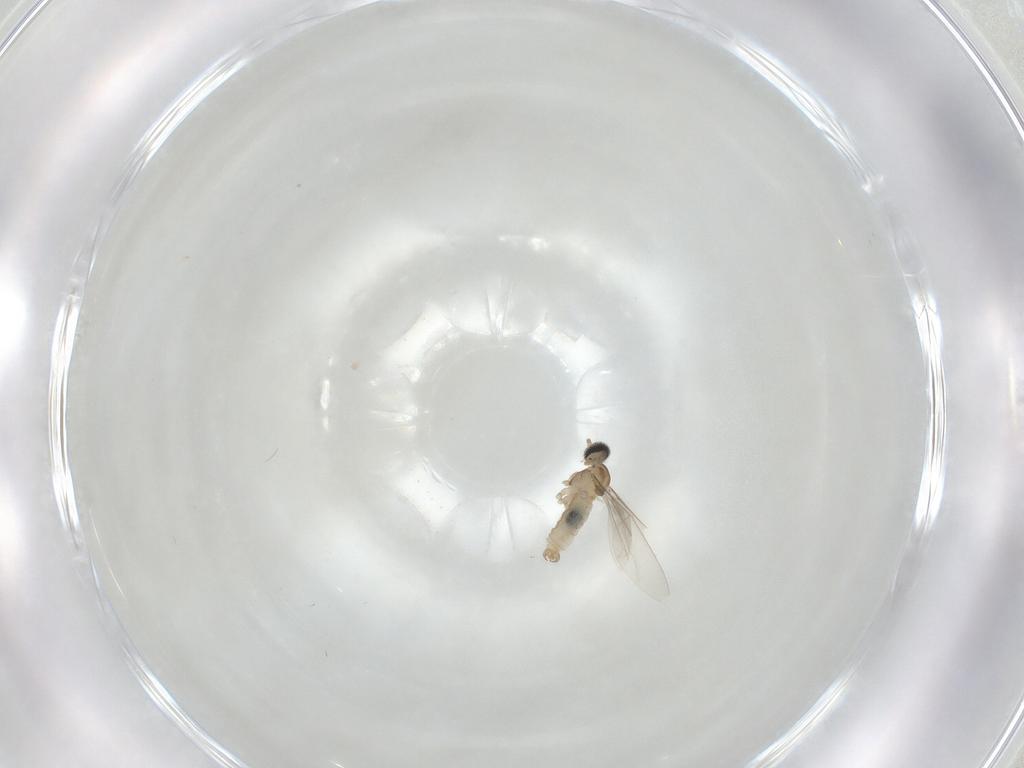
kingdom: Animalia
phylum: Arthropoda
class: Insecta
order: Diptera
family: Cecidomyiidae
